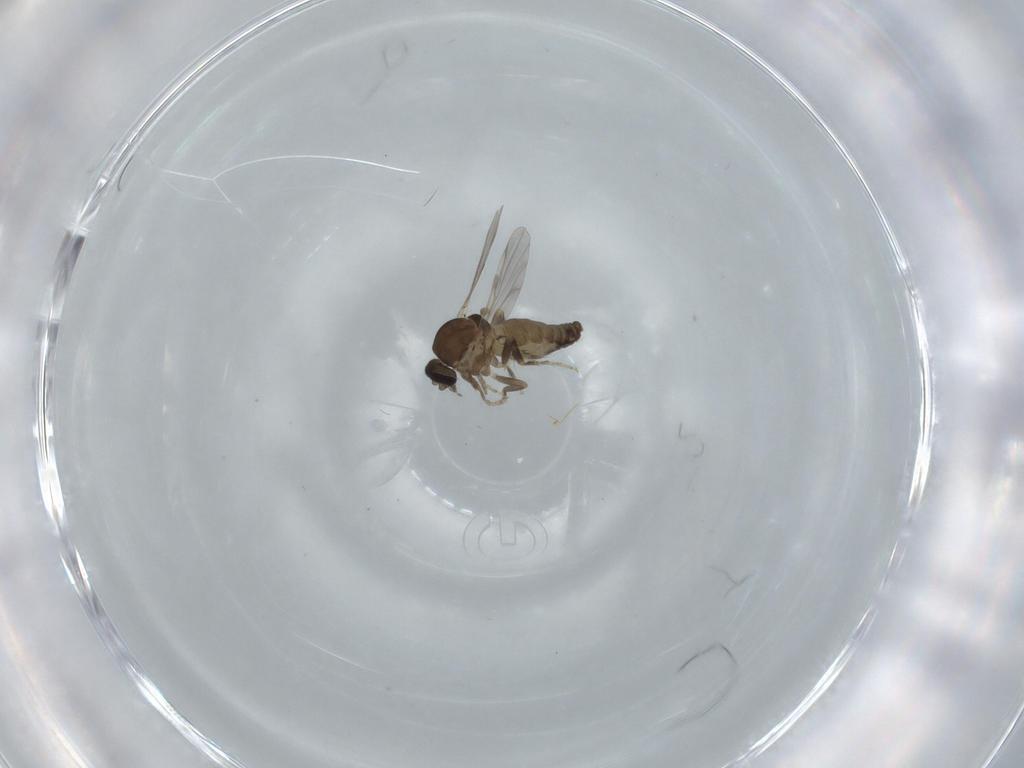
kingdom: Animalia
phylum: Arthropoda
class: Insecta
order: Diptera
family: Ceratopogonidae
